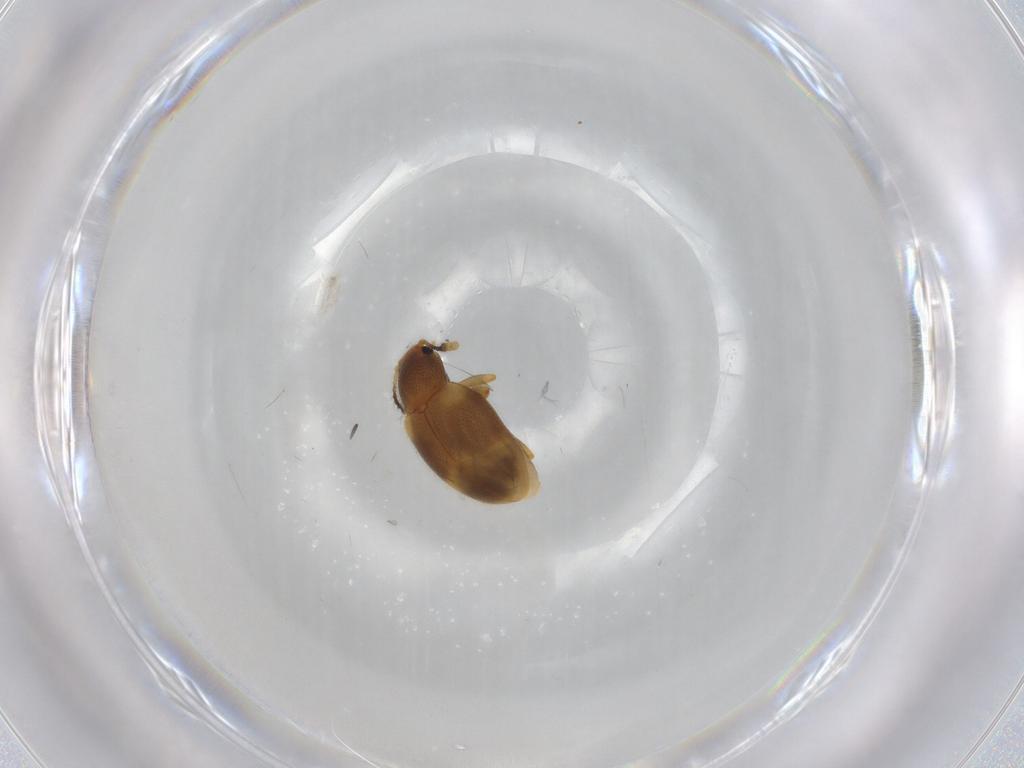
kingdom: Animalia
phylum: Arthropoda
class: Insecta
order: Coleoptera
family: Erotylidae
